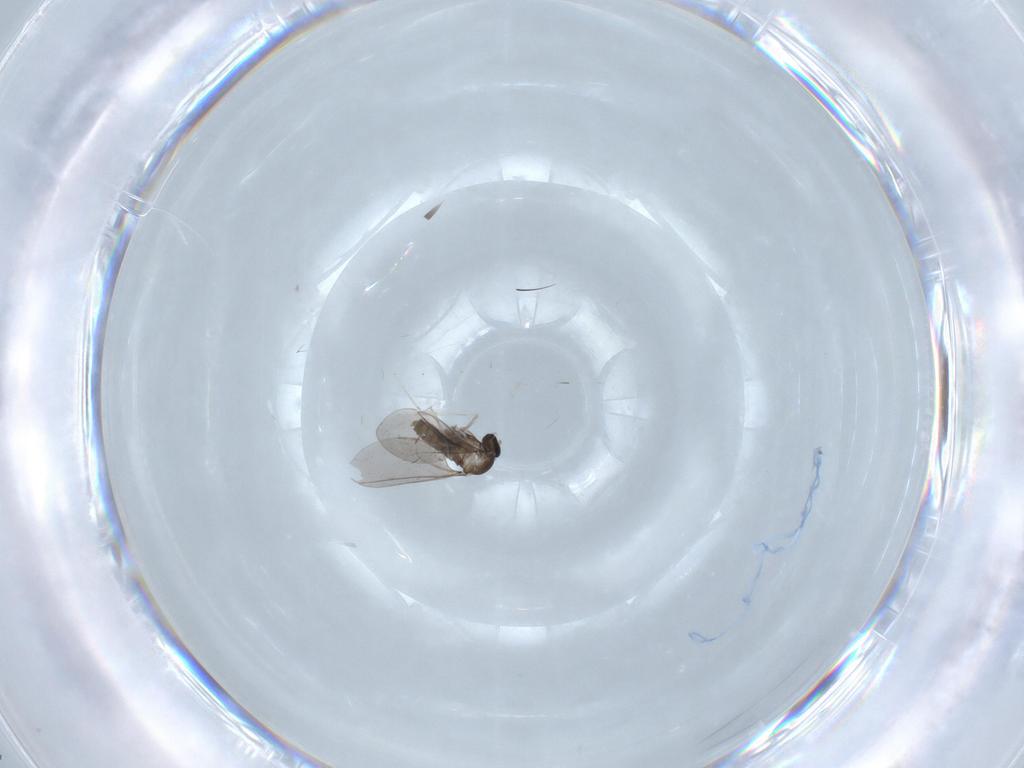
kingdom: Animalia
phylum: Arthropoda
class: Insecta
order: Diptera
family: Cecidomyiidae
